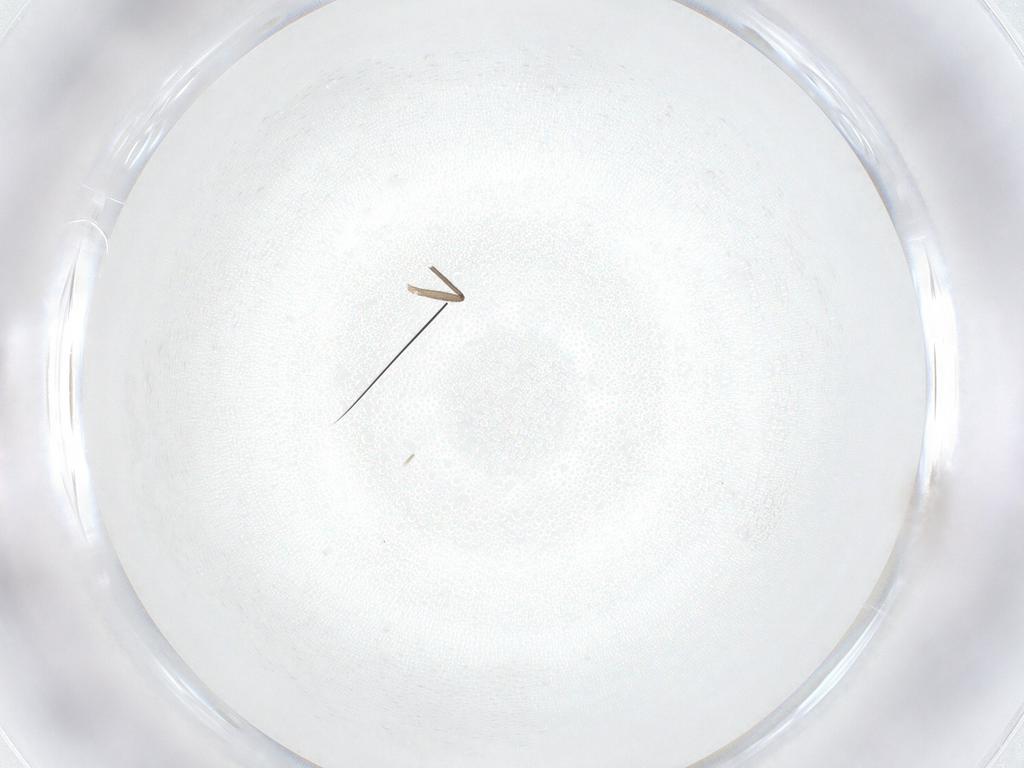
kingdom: Animalia
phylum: Arthropoda
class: Insecta
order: Diptera
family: Sciaridae
